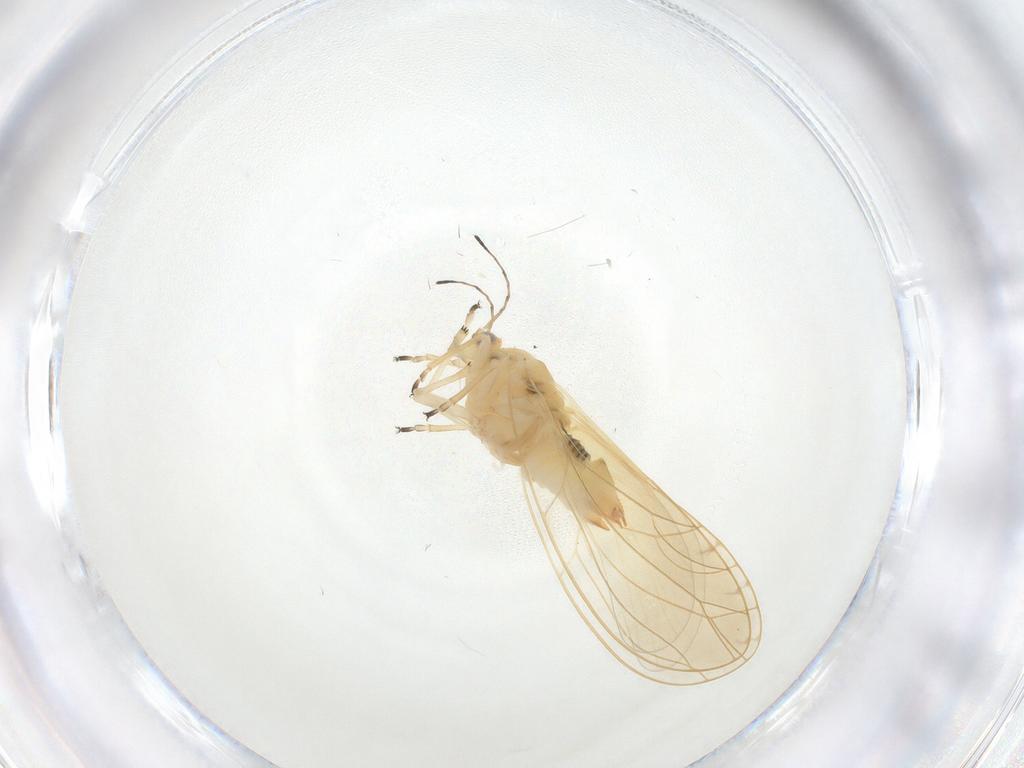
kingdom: Animalia
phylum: Arthropoda
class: Insecta
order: Hemiptera
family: Triozidae
